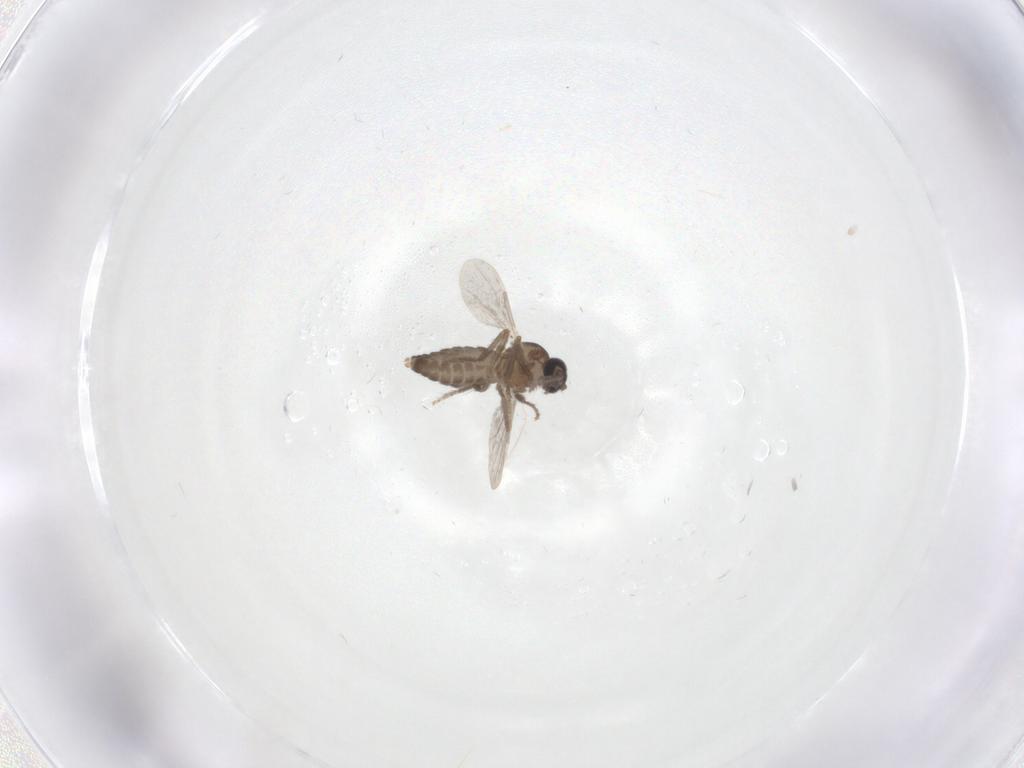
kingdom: Animalia
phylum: Arthropoda
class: Insecta
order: Diptera
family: Ceratopogonidae
